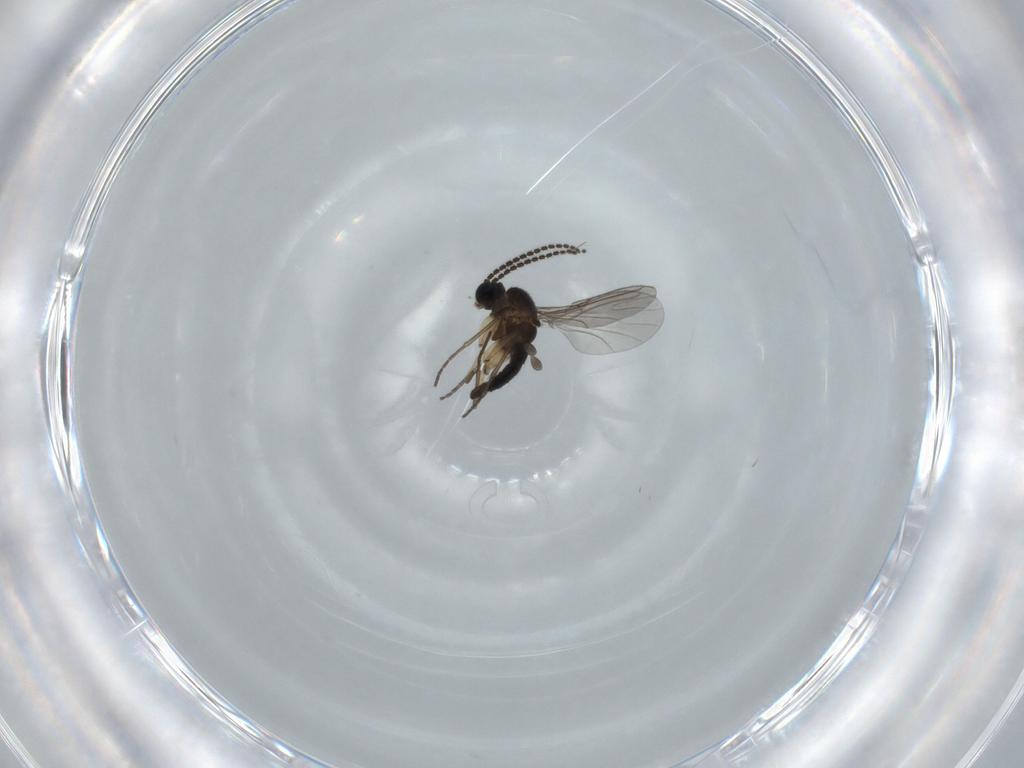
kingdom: Animalia
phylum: Arthropoda
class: Insecta
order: Diptera
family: Sciaridae
